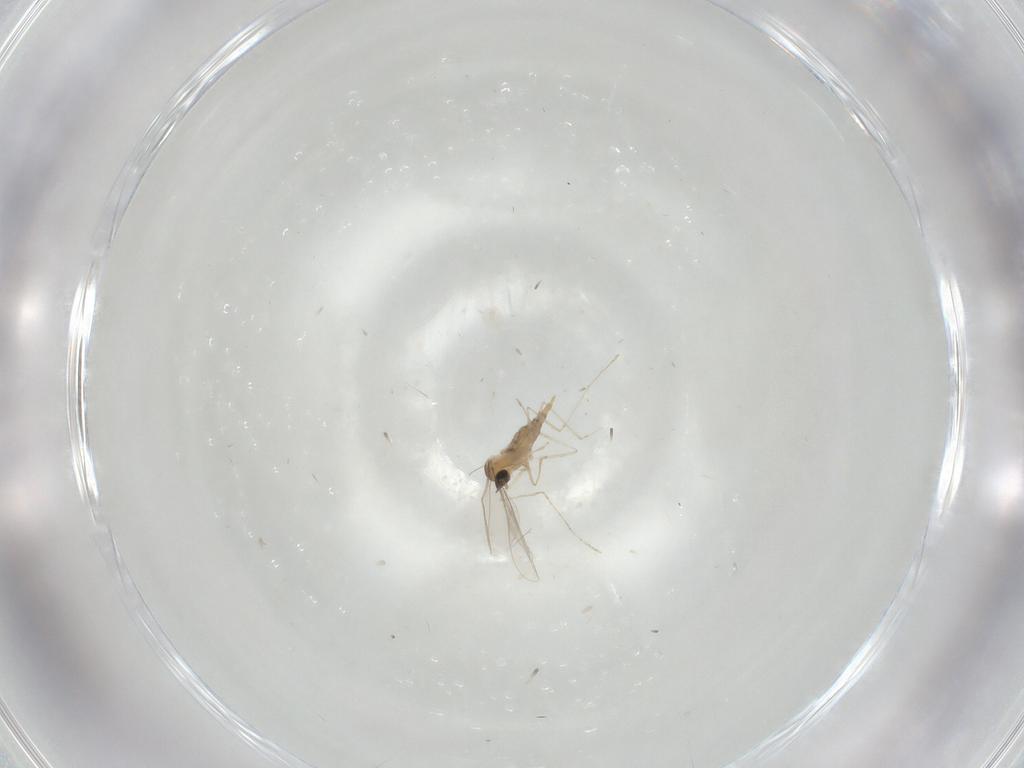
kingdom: Animalia
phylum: Arthropoda
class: Insecta
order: Diptera
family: Cecidomyiidae
